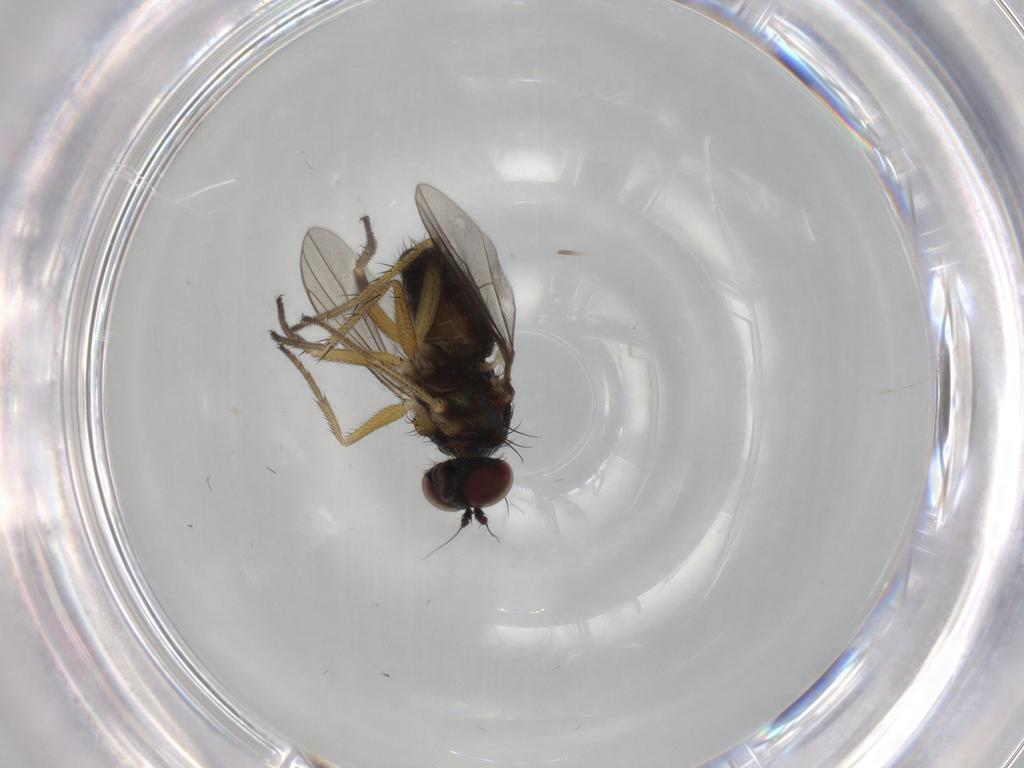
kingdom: Animalia
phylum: Arthropoda
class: Insecta
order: Diptera
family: Dolichopodidae
